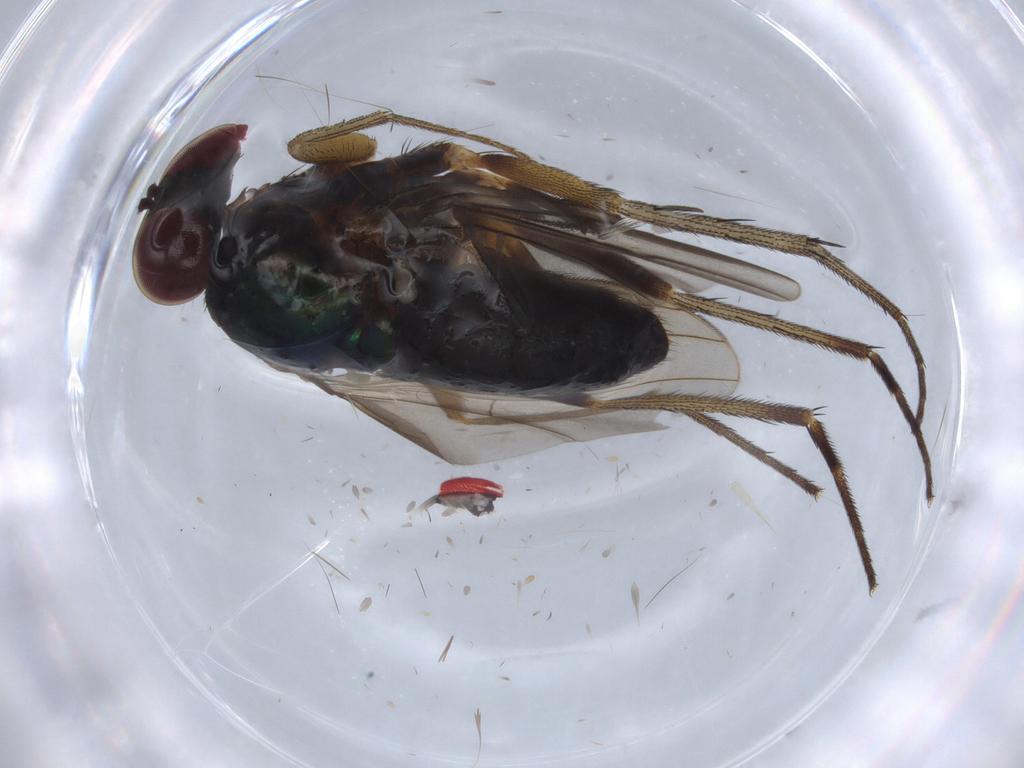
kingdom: Animalia
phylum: Arthropoda
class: Insecta
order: Diptera
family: Dolichopodidae
